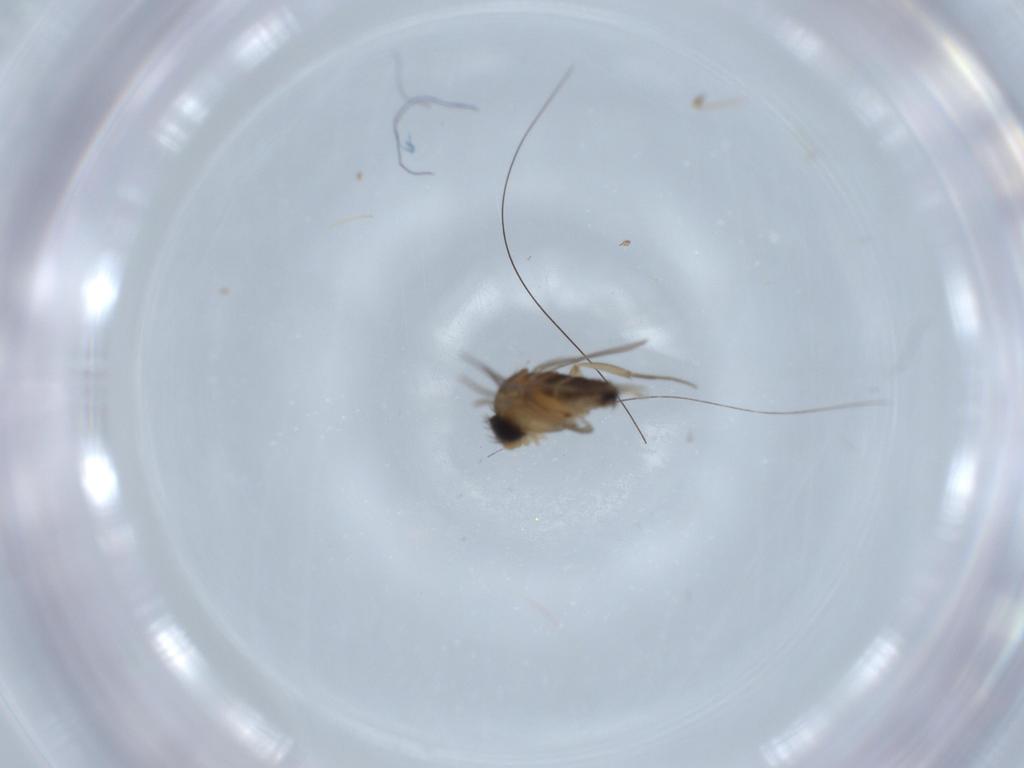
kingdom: Animalia
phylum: Arthropoda
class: Insecta
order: Diptera
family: Phoridae
